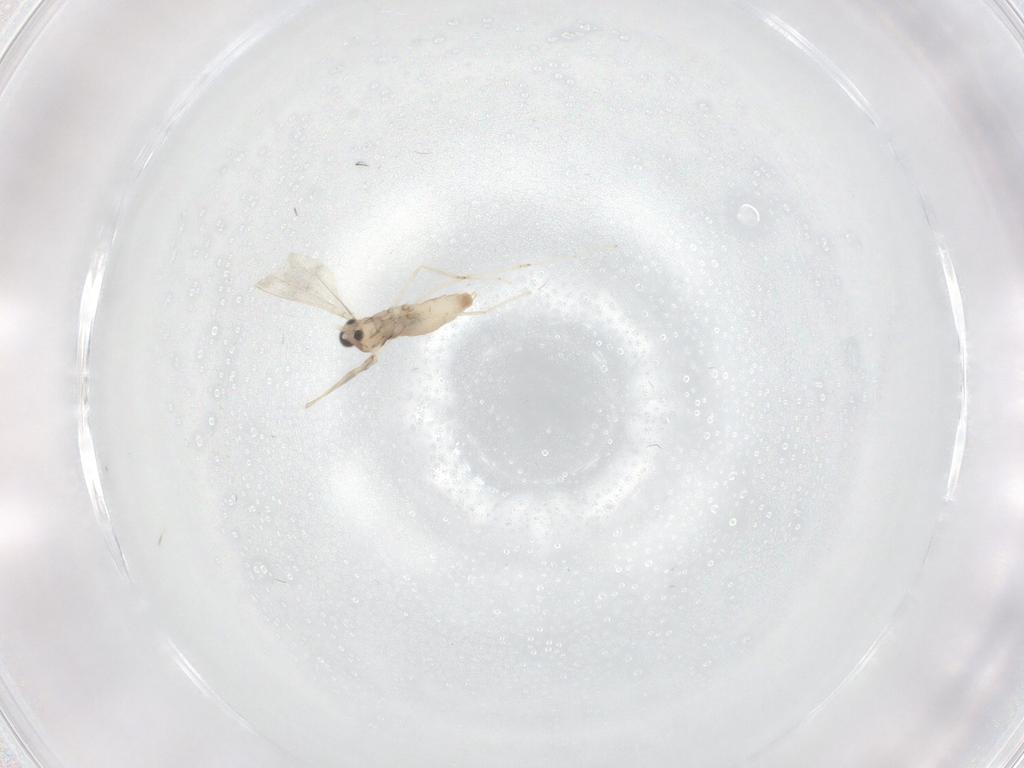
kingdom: Animalia
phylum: Arthropoda
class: Insecta
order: Diptera
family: Cecidomyiidae
